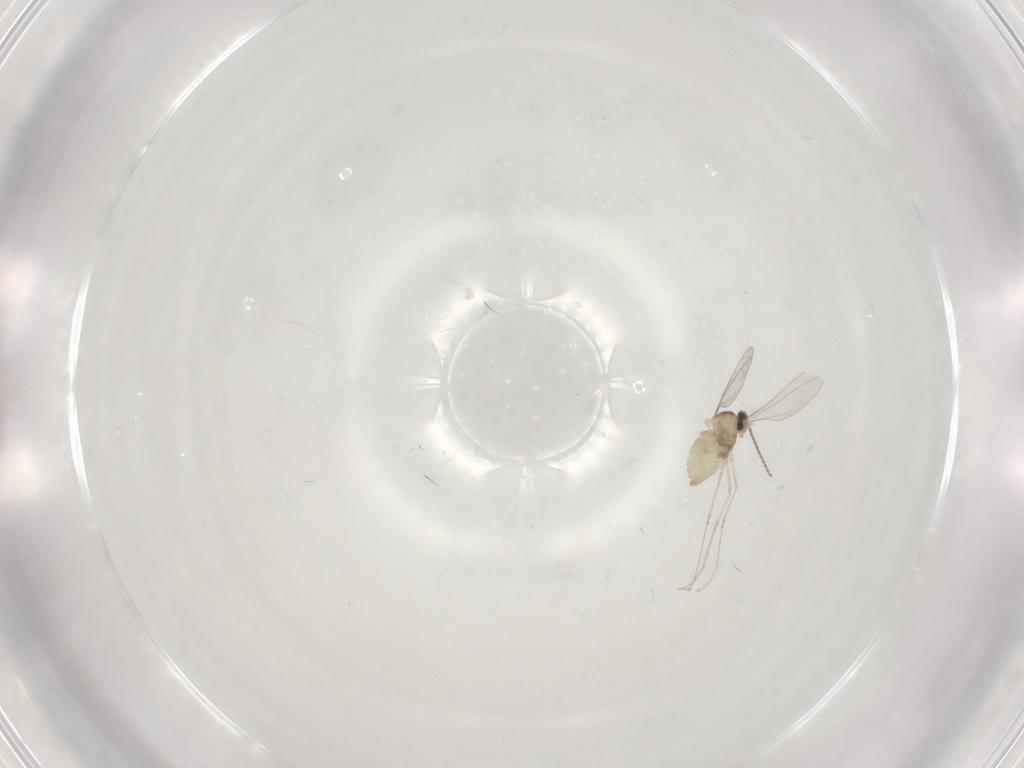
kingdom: Animalia
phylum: Arthropoda
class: Insecta
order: Diptera
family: Cecidomyiidae
